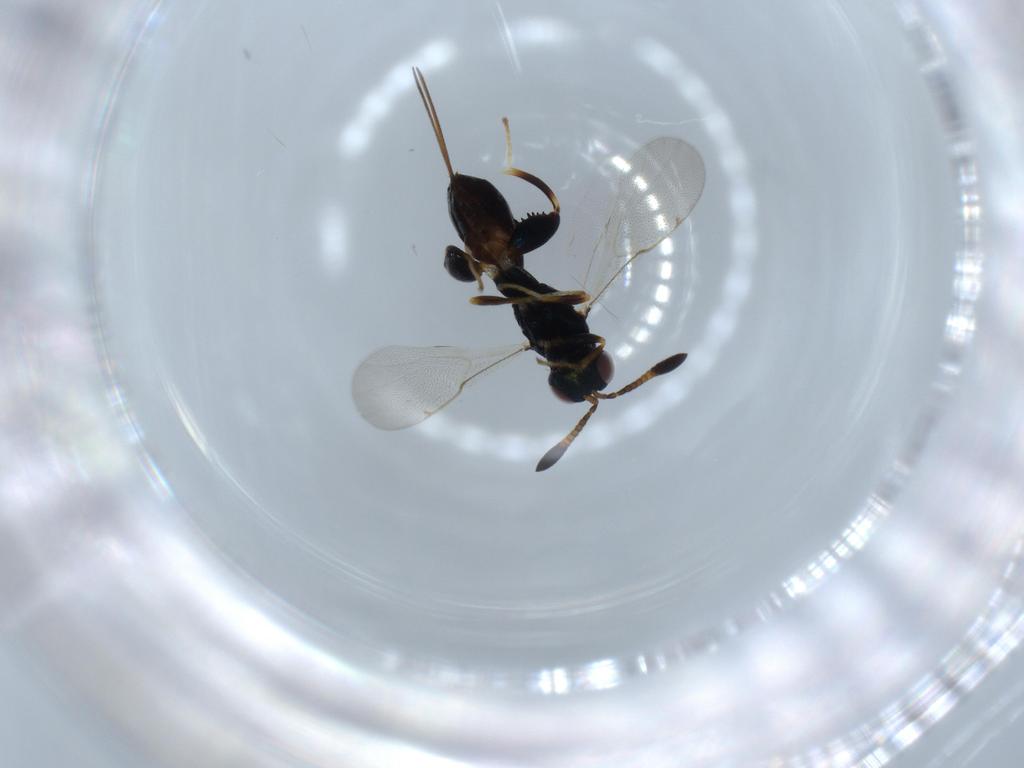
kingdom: Animalia
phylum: Arthropoda
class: Insecta
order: Hymenoptera
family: Torymidae
